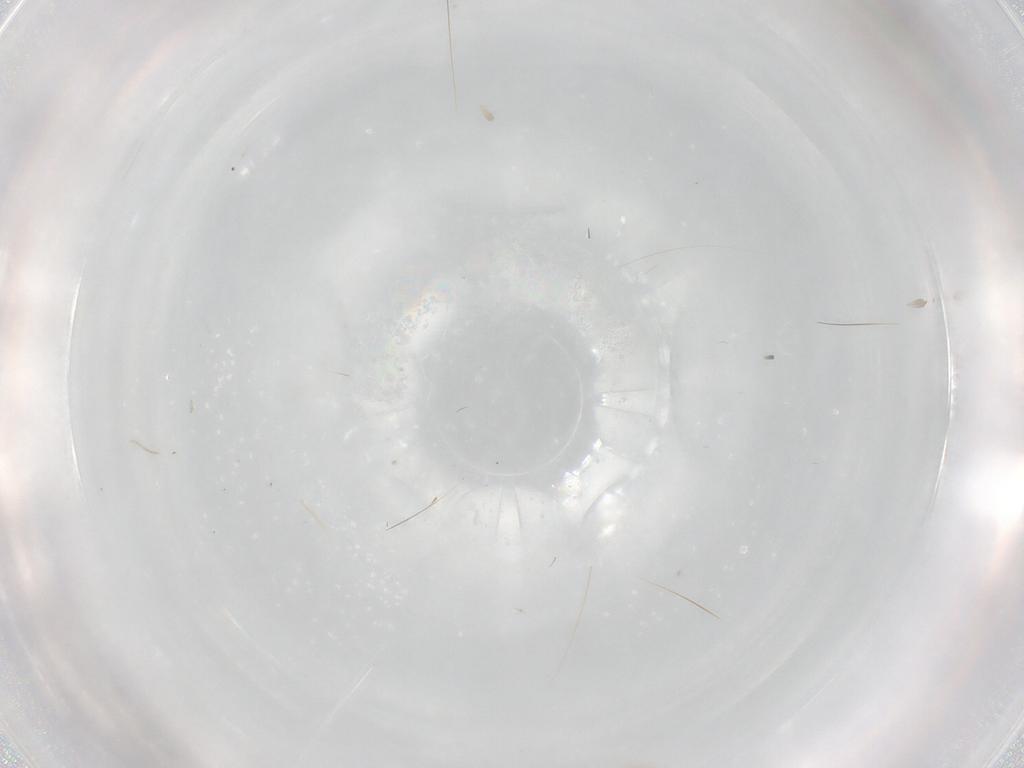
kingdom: Animalia
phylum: Arthropoda
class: Insecta
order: Diptera
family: Cecidomyiidae
